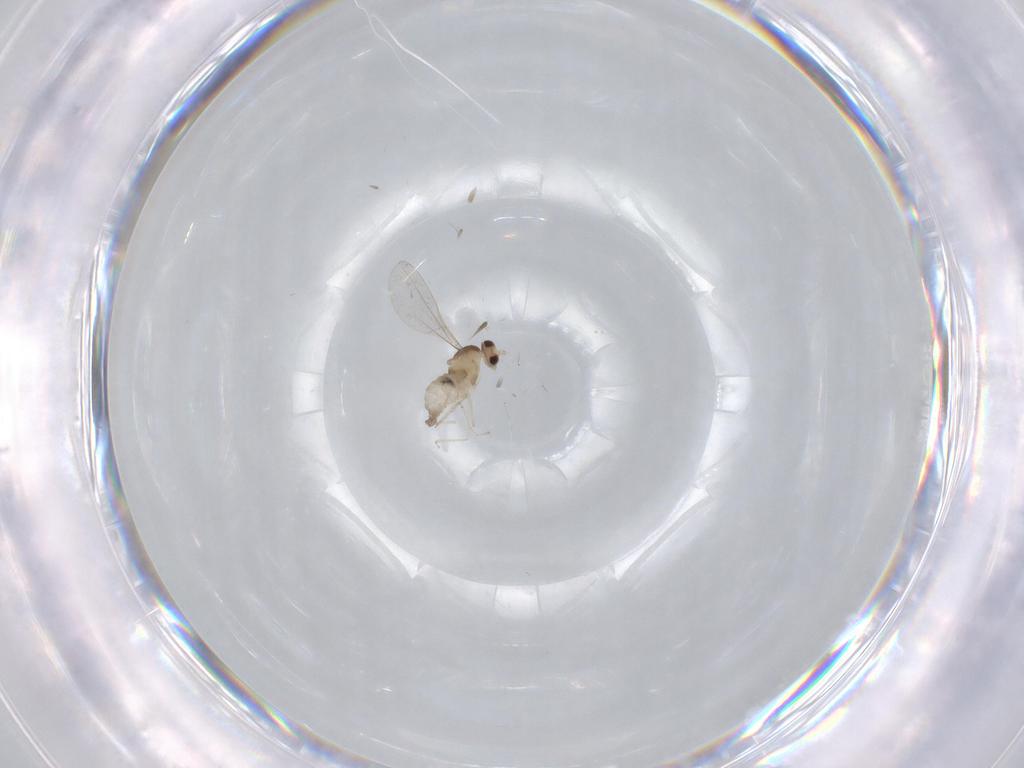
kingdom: Animalia
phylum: Arthropoda
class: Insecta
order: Diptera
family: Cecidomyiidae
